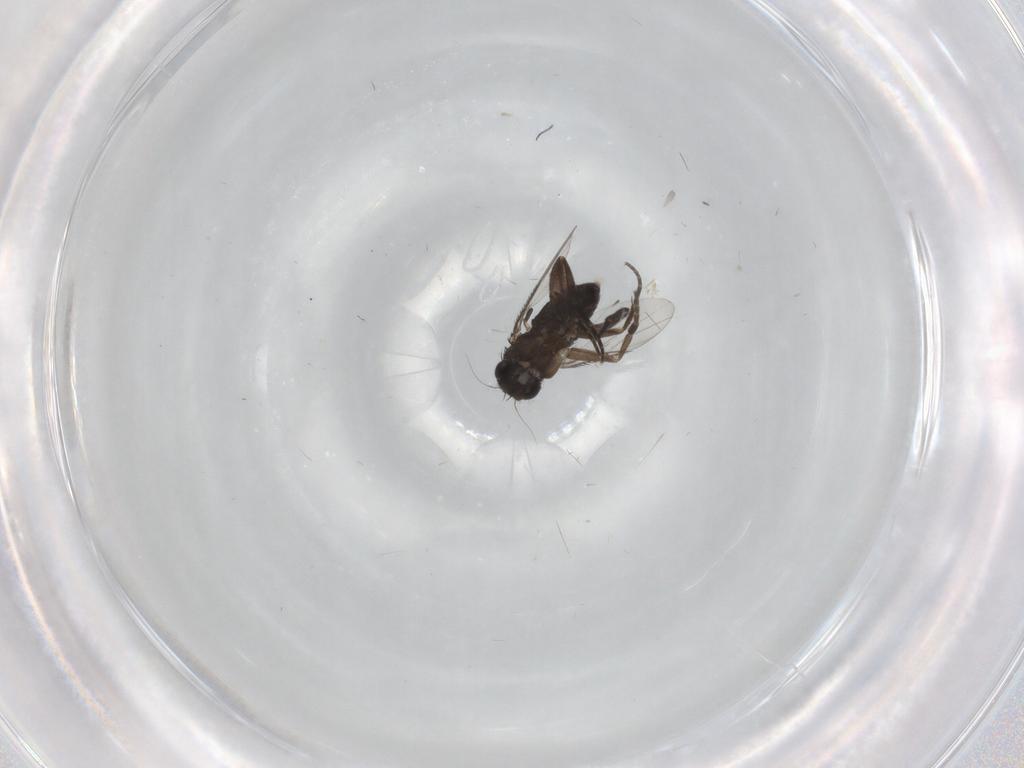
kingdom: Animalia
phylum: Arthropoda
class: Insecta
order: Diptera
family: Phoridae
